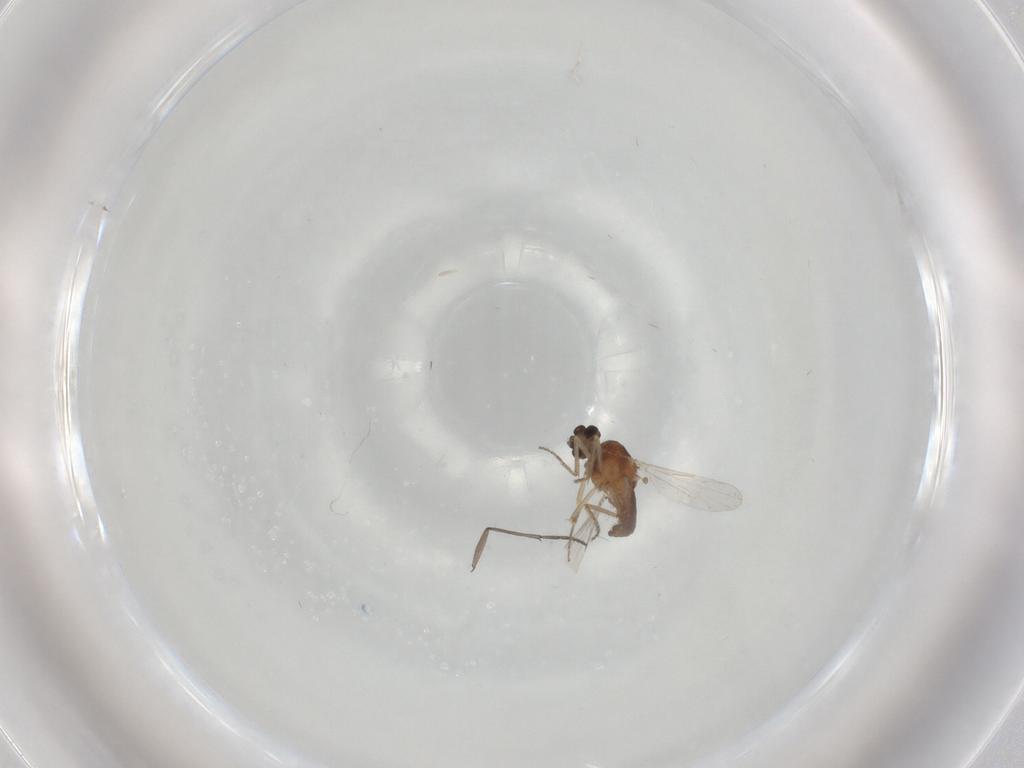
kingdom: Animalia
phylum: Arthropoda
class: Insecta
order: Diptera
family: Ceratopogonidae
